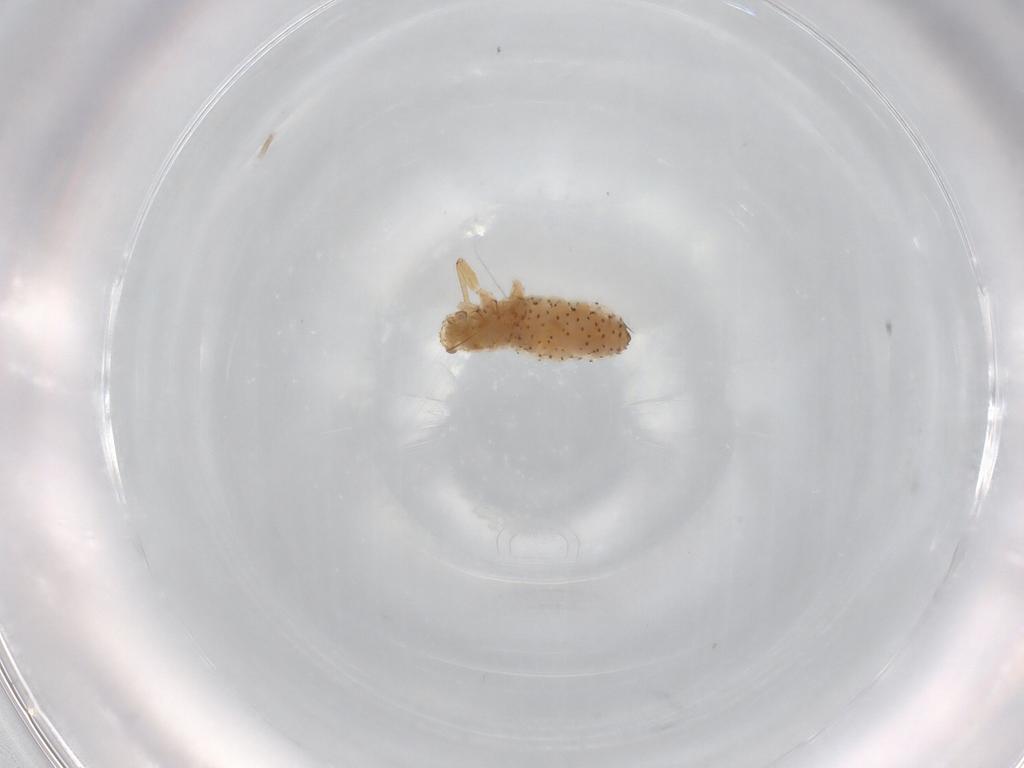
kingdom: Animalia
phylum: Arthropoda
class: Insecta
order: Hemiptera
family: Aphididae
